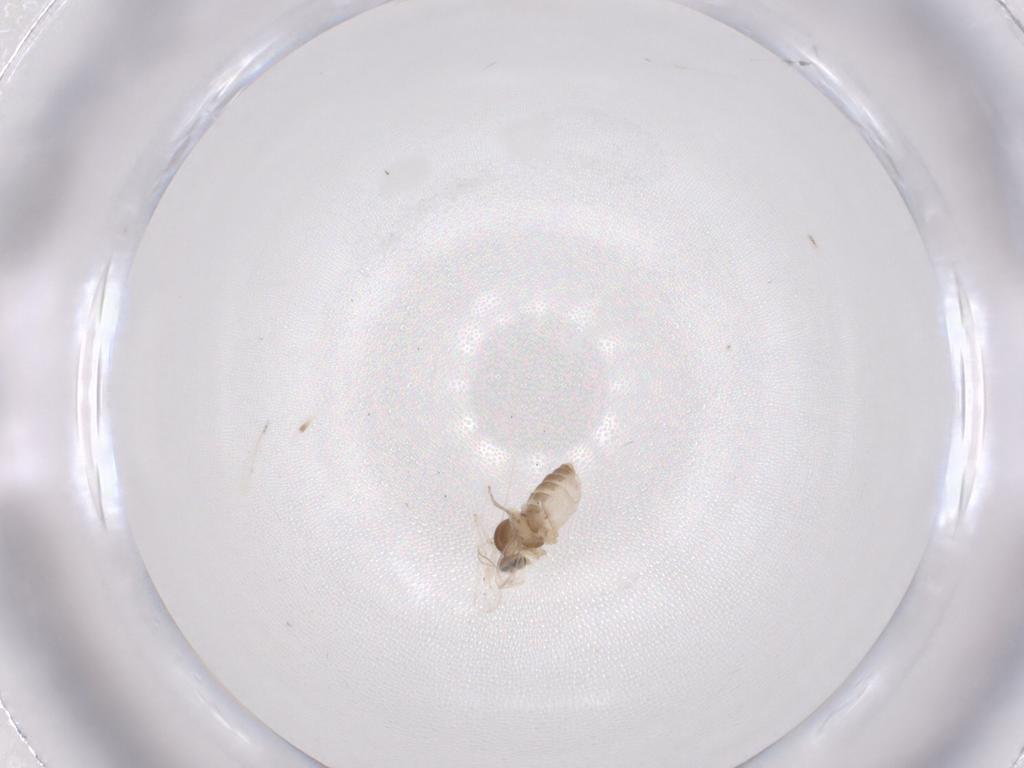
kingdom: Animalia
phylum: Arthropoda
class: Insecta
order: Diptera
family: Cecidomyiidae
